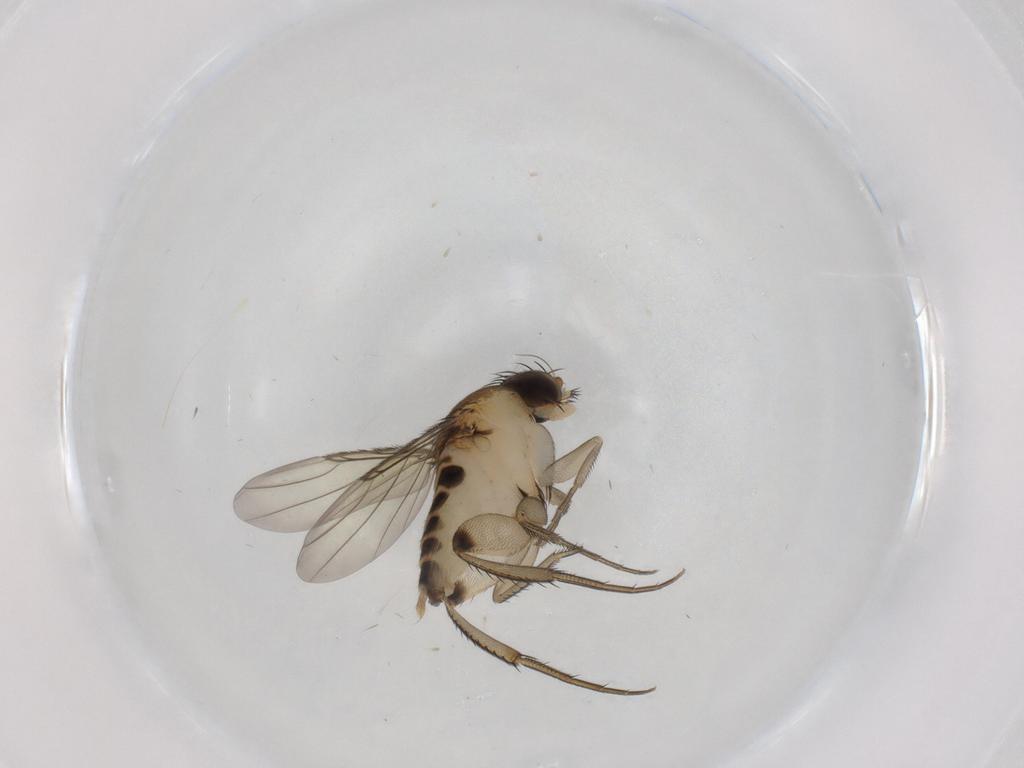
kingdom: Animalia
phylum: Arthropoda
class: Insecta
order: Diptera
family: Phoridae
